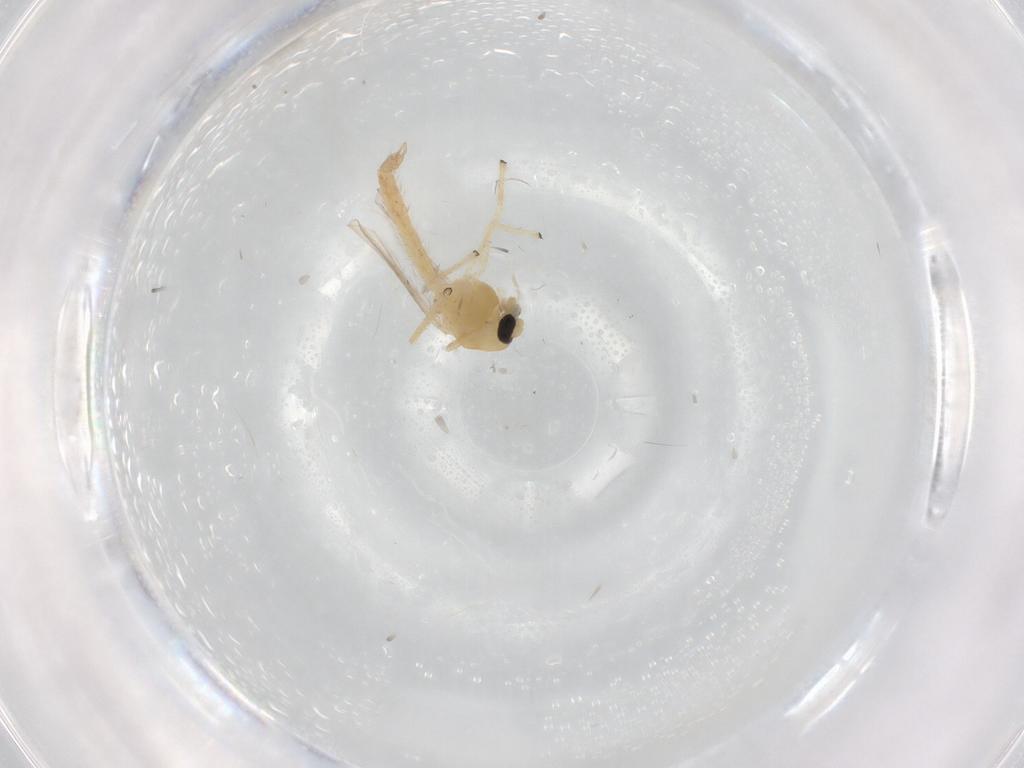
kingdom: Animalia
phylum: Arthropoda
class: Insecta
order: Diptera
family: Chironomidae
